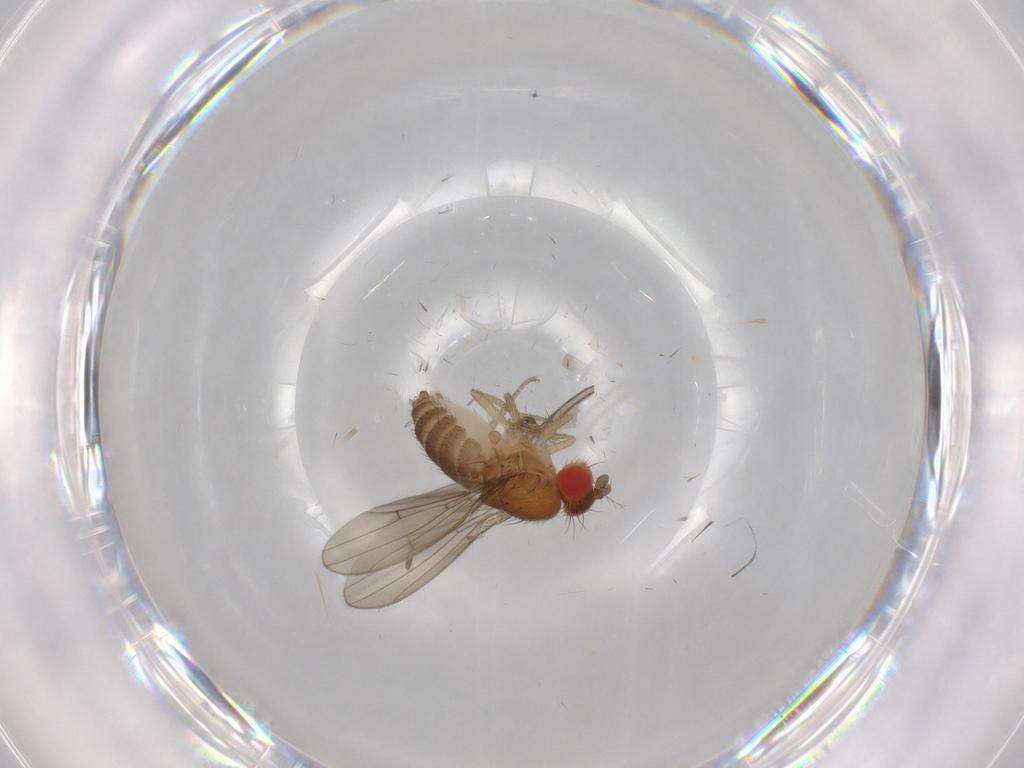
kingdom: Animalia
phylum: Arthropoda
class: Insecta
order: Diptera
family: Drosophilidae
